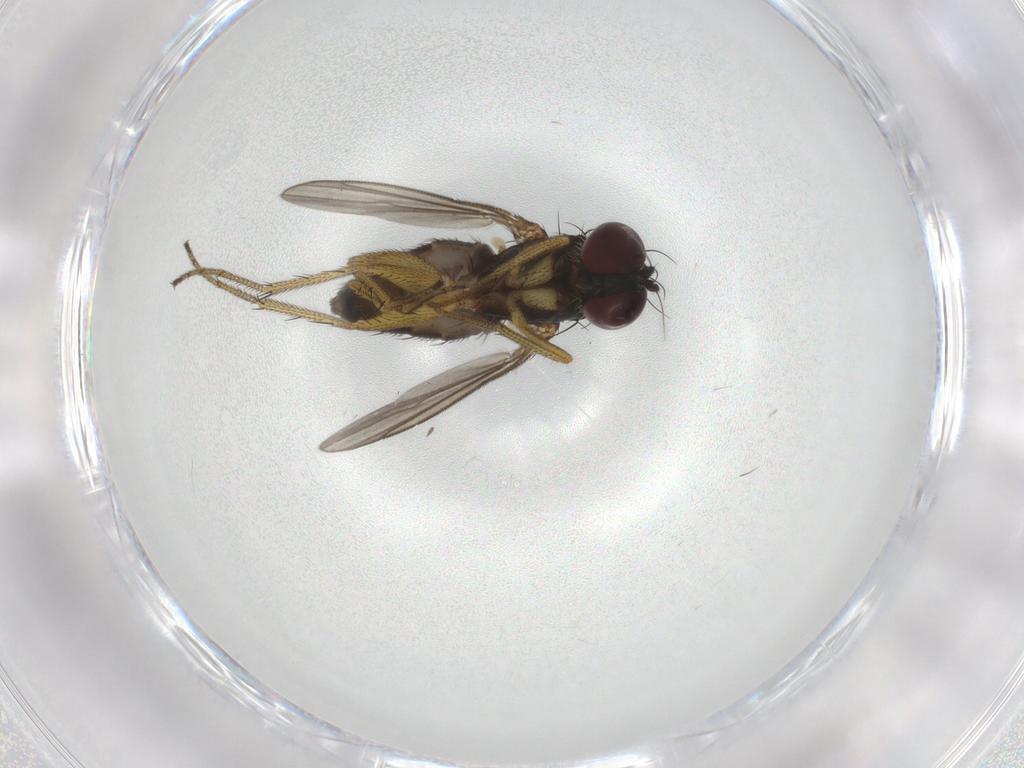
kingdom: Animalia
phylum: Arthropoda
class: Insecta
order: Diptera
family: Dolichopodidae
